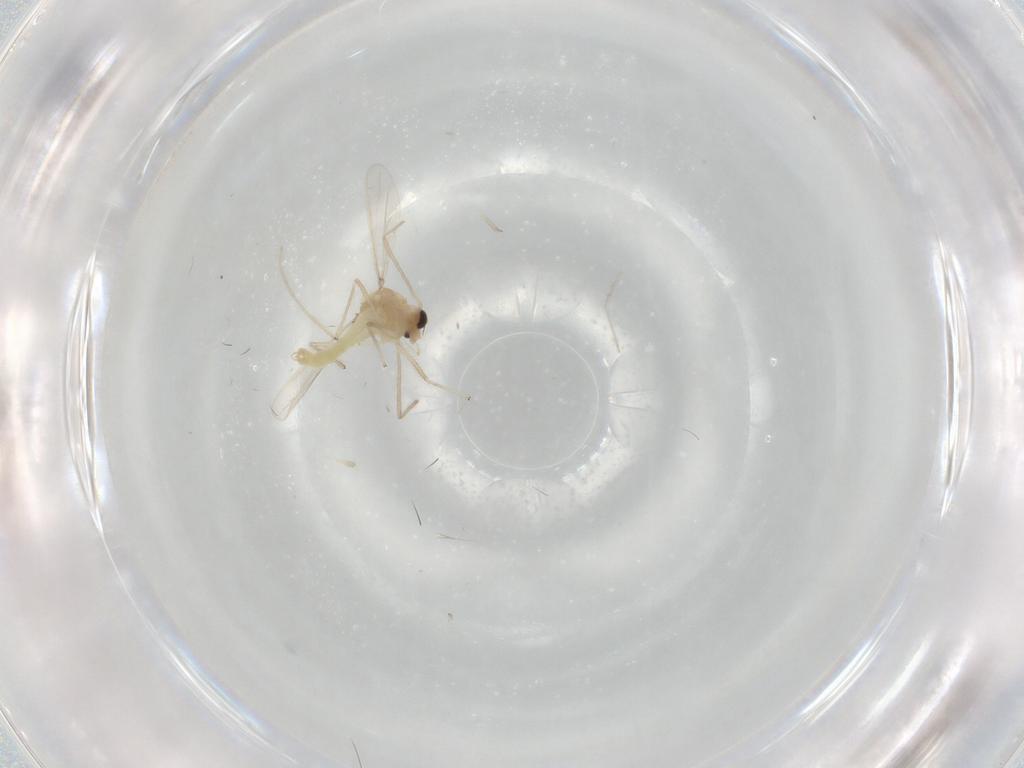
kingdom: Animalia
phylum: Arthropoda
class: Insecta
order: Diptera
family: Chironomidae
